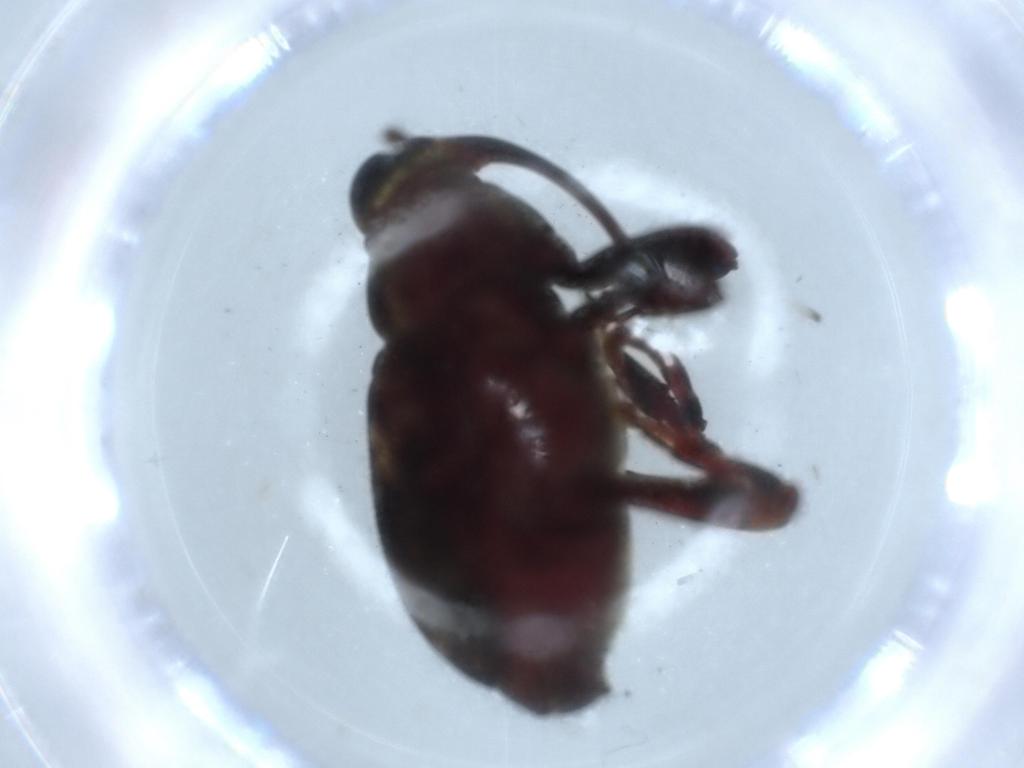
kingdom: Animalia
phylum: Arthropoda
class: Insecta
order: Coleoptera
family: Curculionidae
